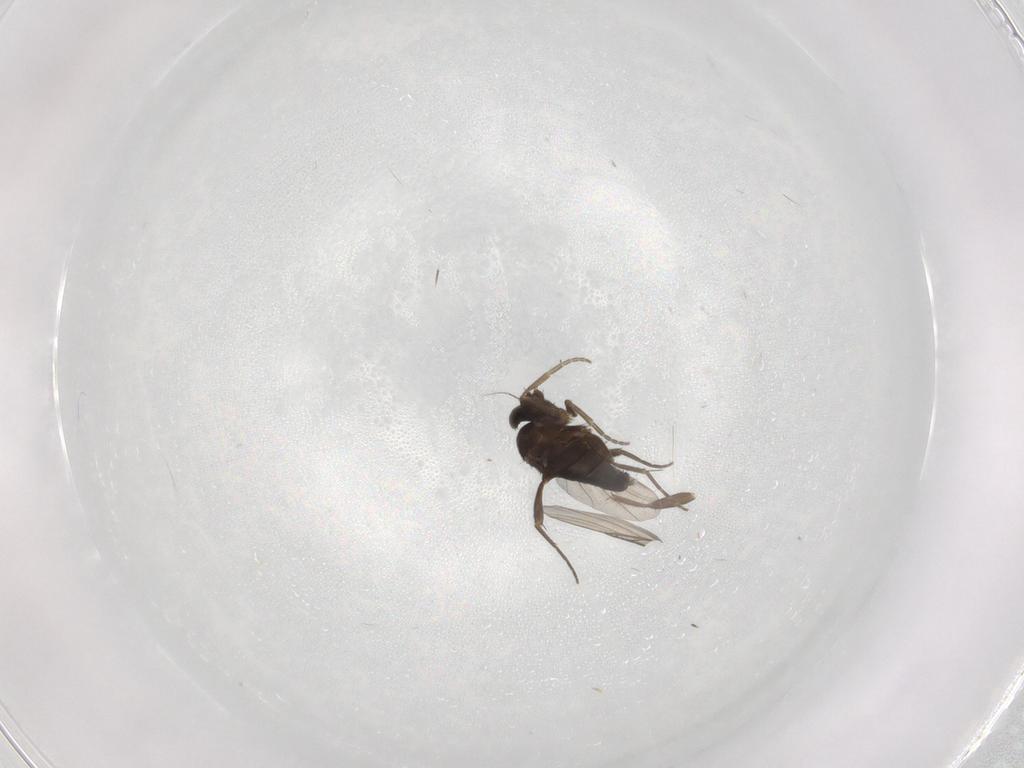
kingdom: Animalia
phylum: Arthropoda
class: Insecta
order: Diptera
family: Phoridae
